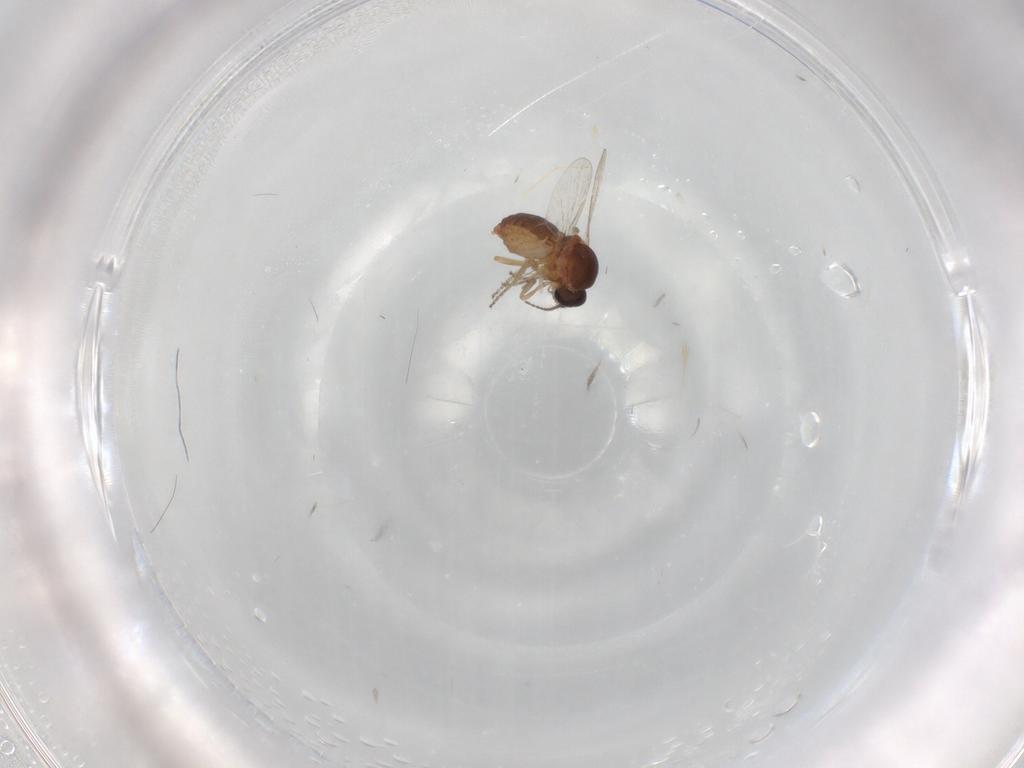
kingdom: Animalia
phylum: Arthropoda
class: Insecta
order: Diptera
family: Ceratopogonidae
